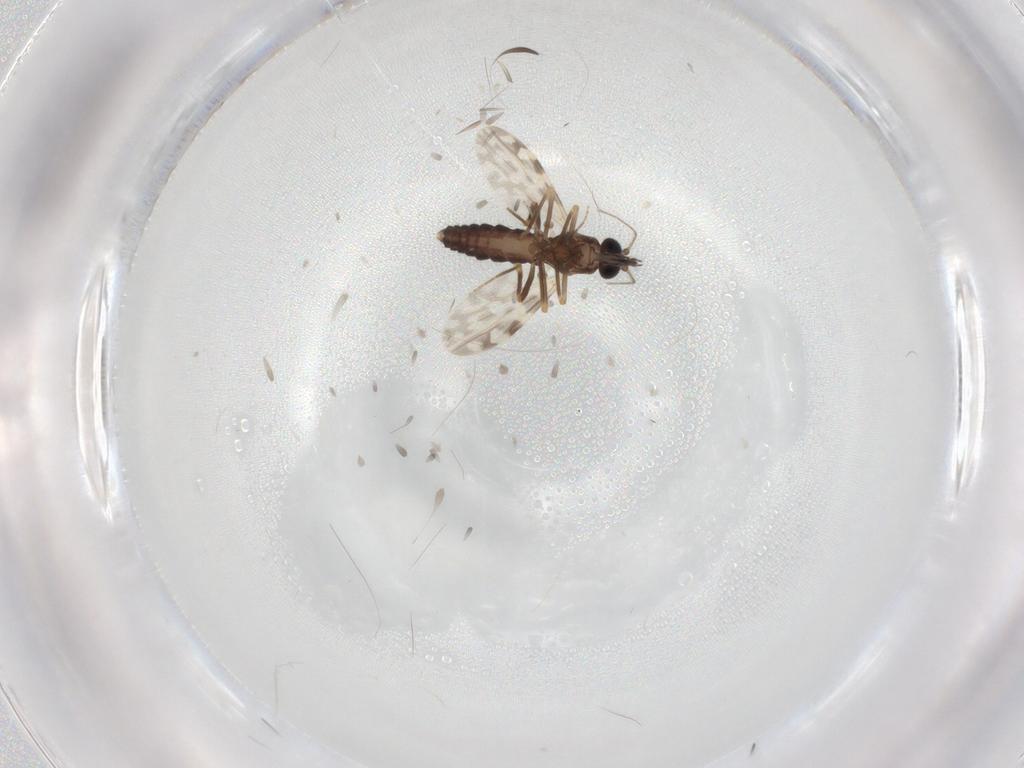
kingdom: Animalia
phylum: Arthropoda
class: Insecta
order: Diptera
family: Ceratopogonidae
